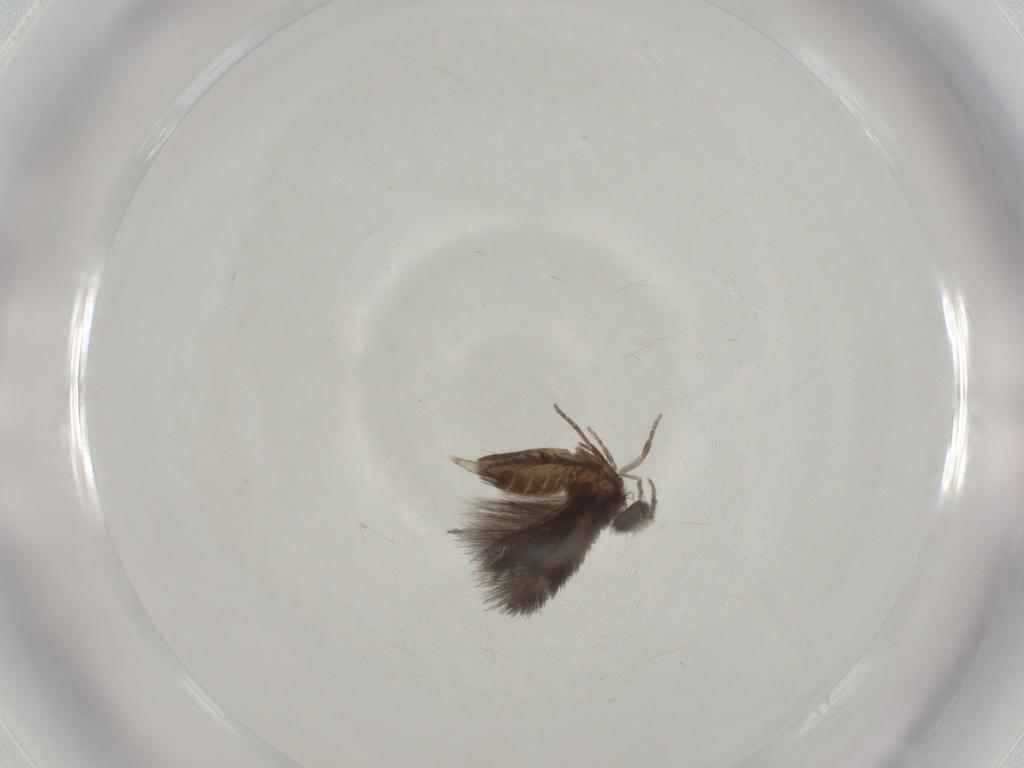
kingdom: Animalia
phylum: Arthropoda
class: Insecta
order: Trichoptera
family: Hydroptilidae
